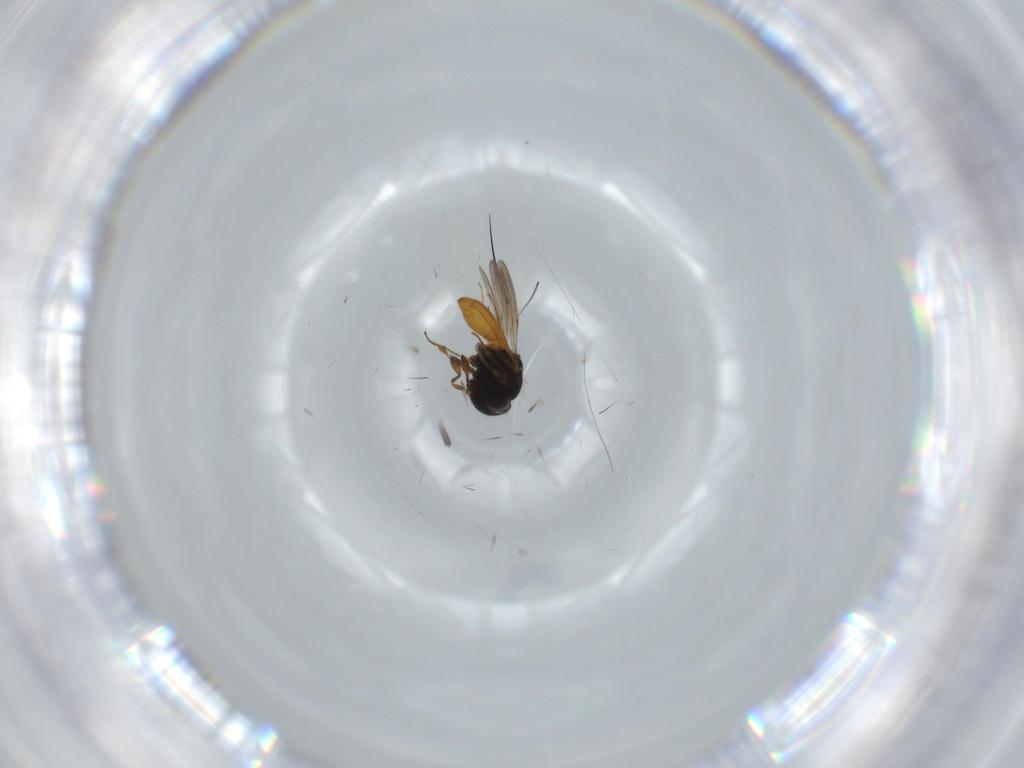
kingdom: Animalia
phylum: Arthropoda
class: Insecta
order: Hymenoptera
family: Scelionidae
